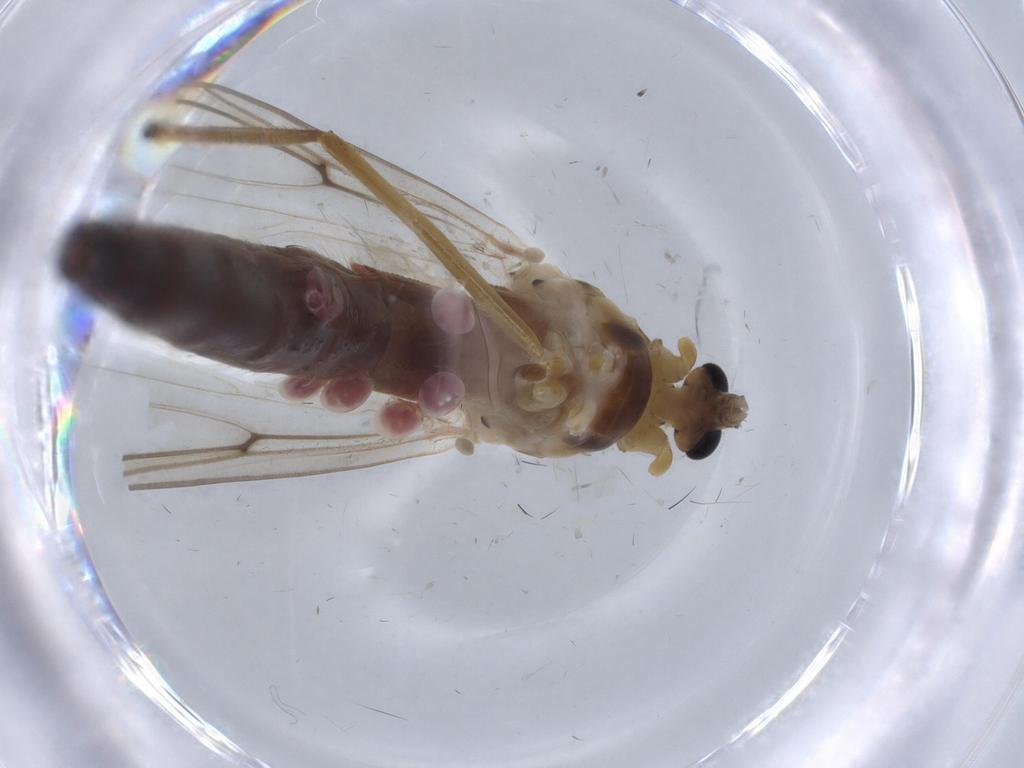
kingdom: Animalia
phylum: Arthropoda
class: Insecta
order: Diptera
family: Chironomidae
